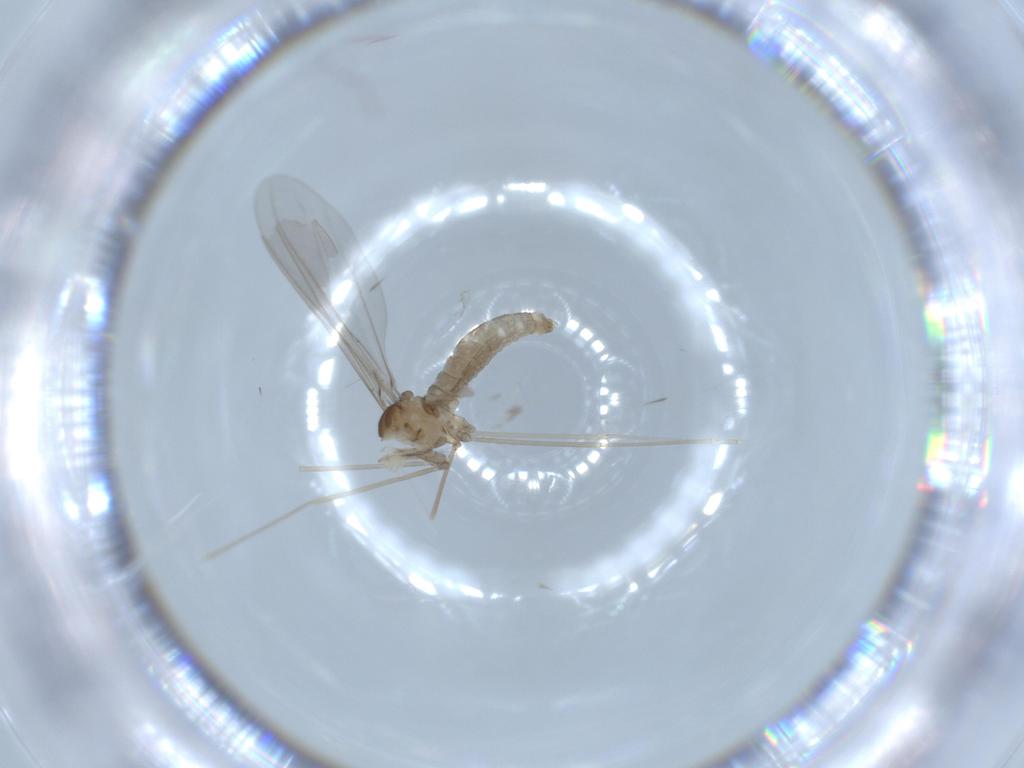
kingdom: Animalia
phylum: Arthropoda
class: Insecta
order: Diptera
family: Cecidomyiidae
